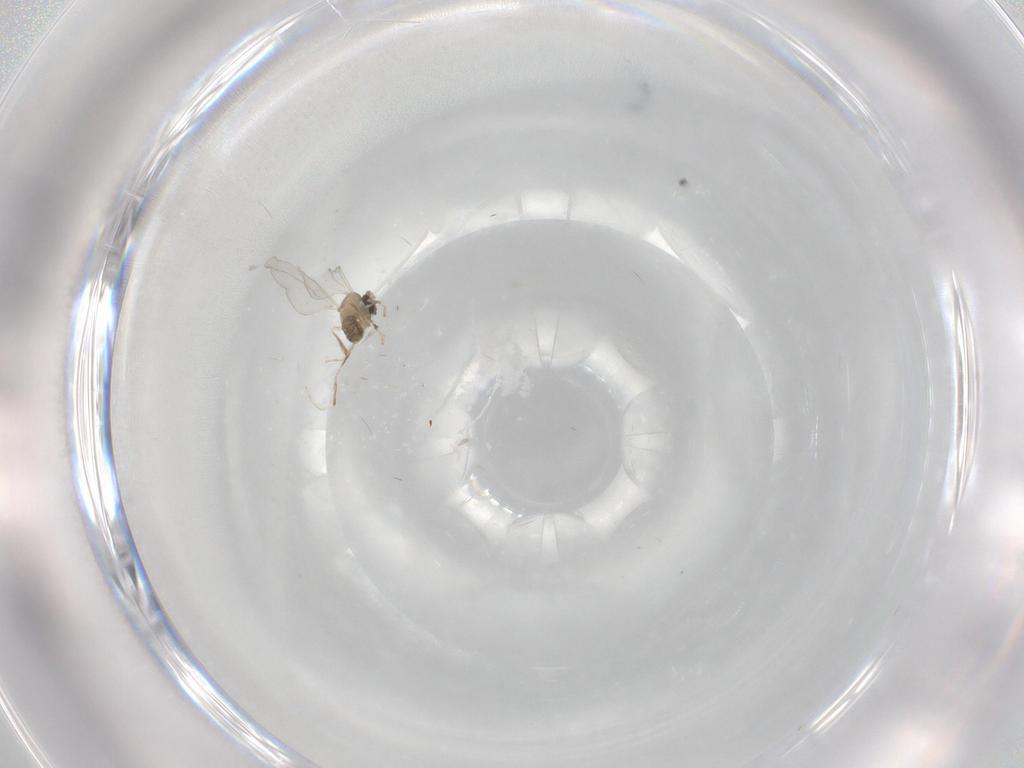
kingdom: Animalia
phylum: Arthropoda
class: Insecta
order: Diptera
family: Cecidomyiidae
